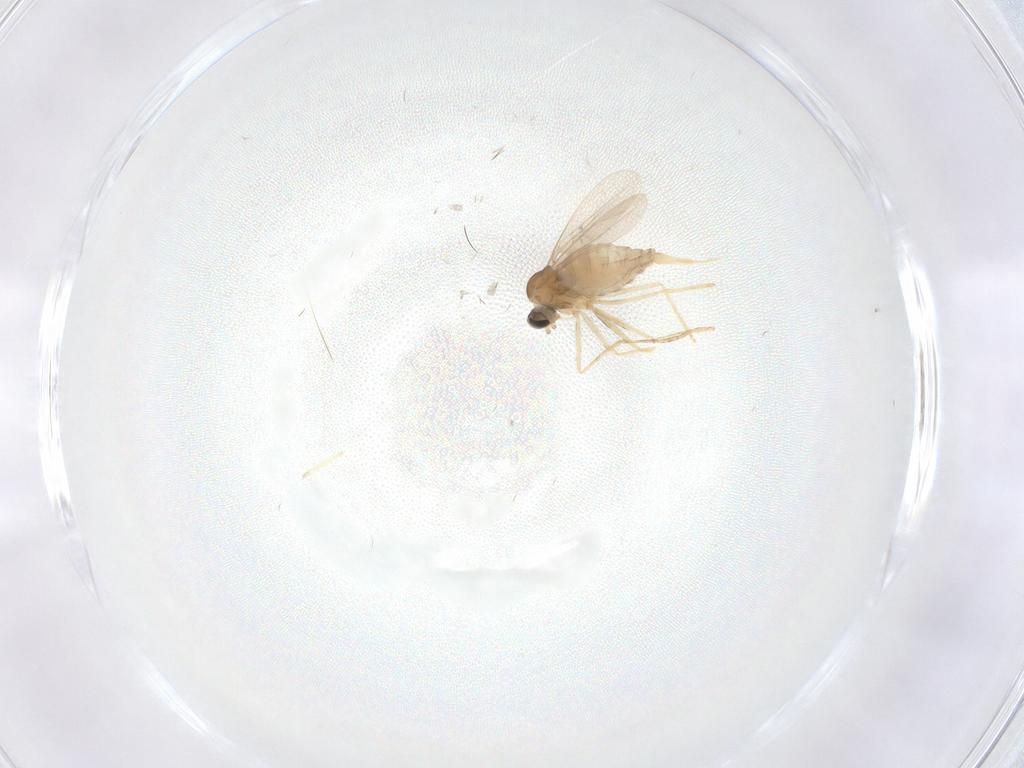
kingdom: Animalia
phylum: Arthropoda
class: Insecta
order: Diptera
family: Cecidomyiidae
